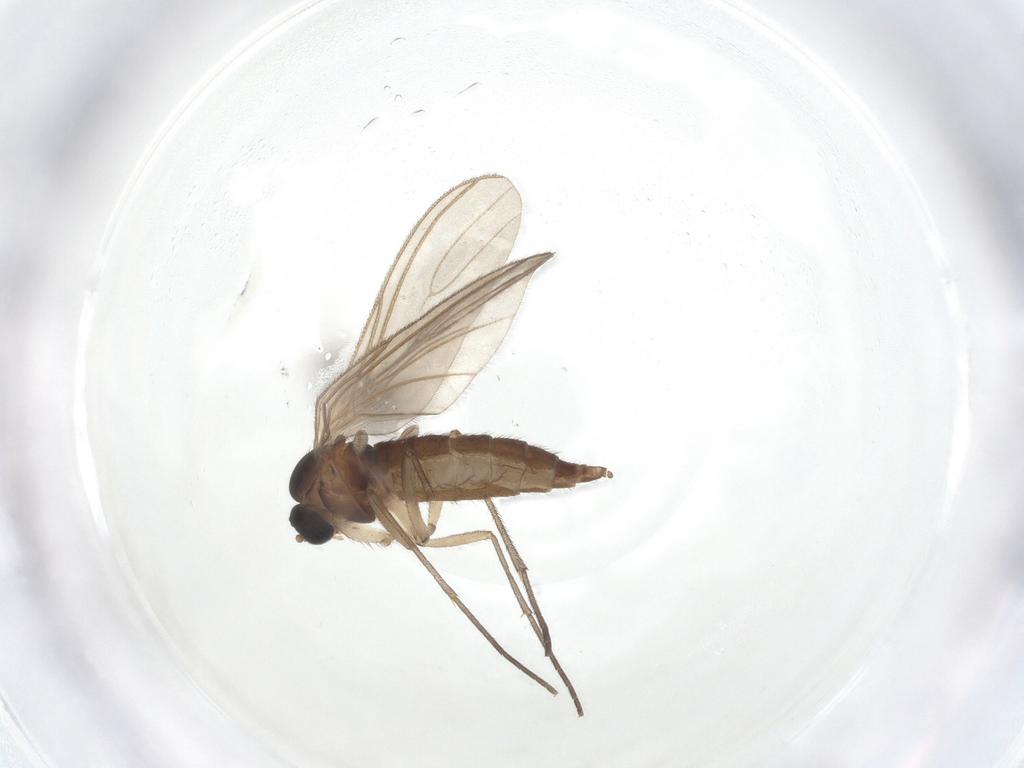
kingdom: Animalia
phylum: Arthropoda
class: Insecta
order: Diptera
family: Sciaridae
